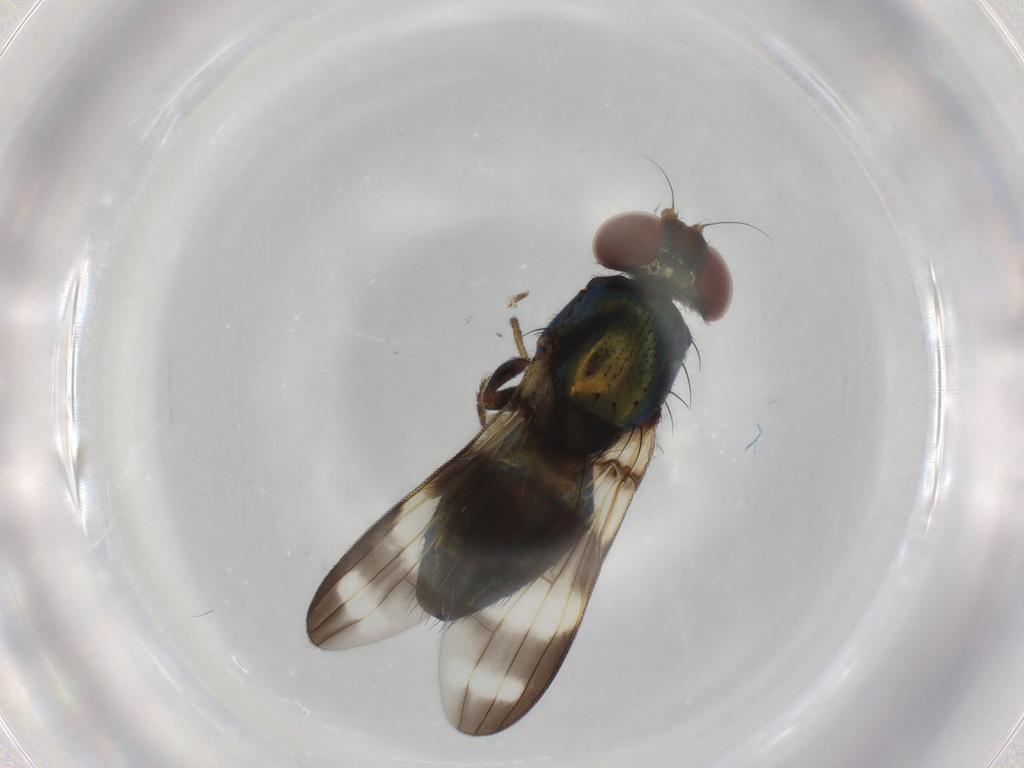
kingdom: Animalia
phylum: Arthropoda
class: Insecta
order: Diptera
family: Cecidomyiidae
